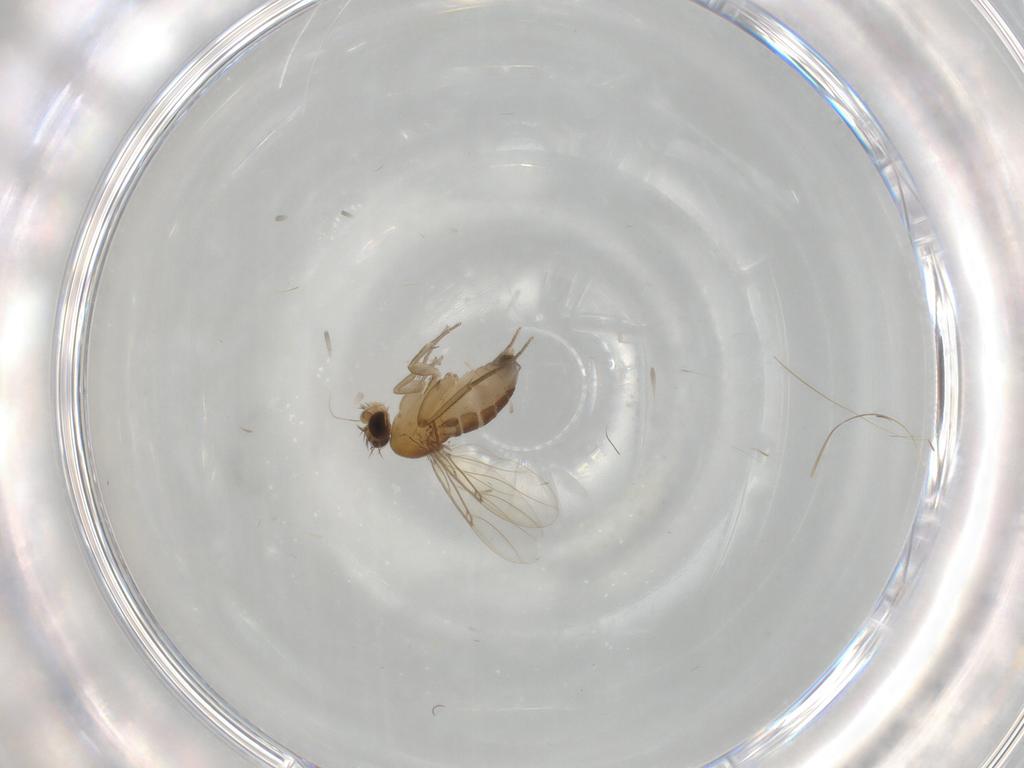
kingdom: Animalia
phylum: Arthropoda
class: Insecta
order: Diptera
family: Phoridae
